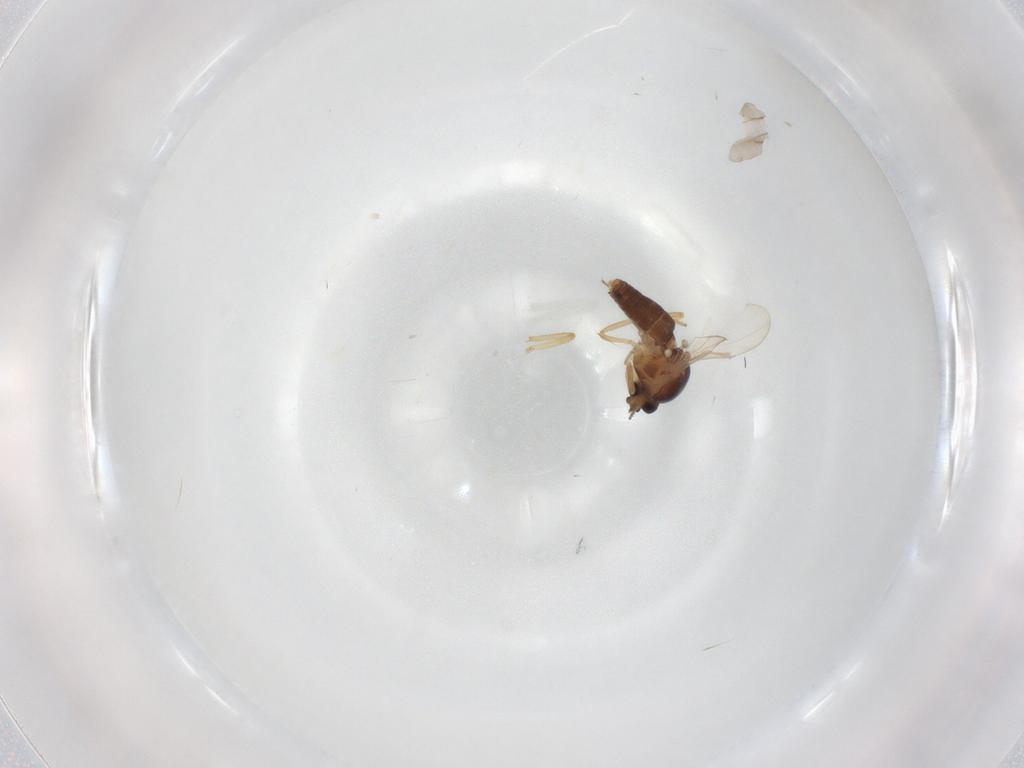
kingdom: Animalia
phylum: Arthropoda
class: Insecta
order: Diptera
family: Ceratopogonidae
